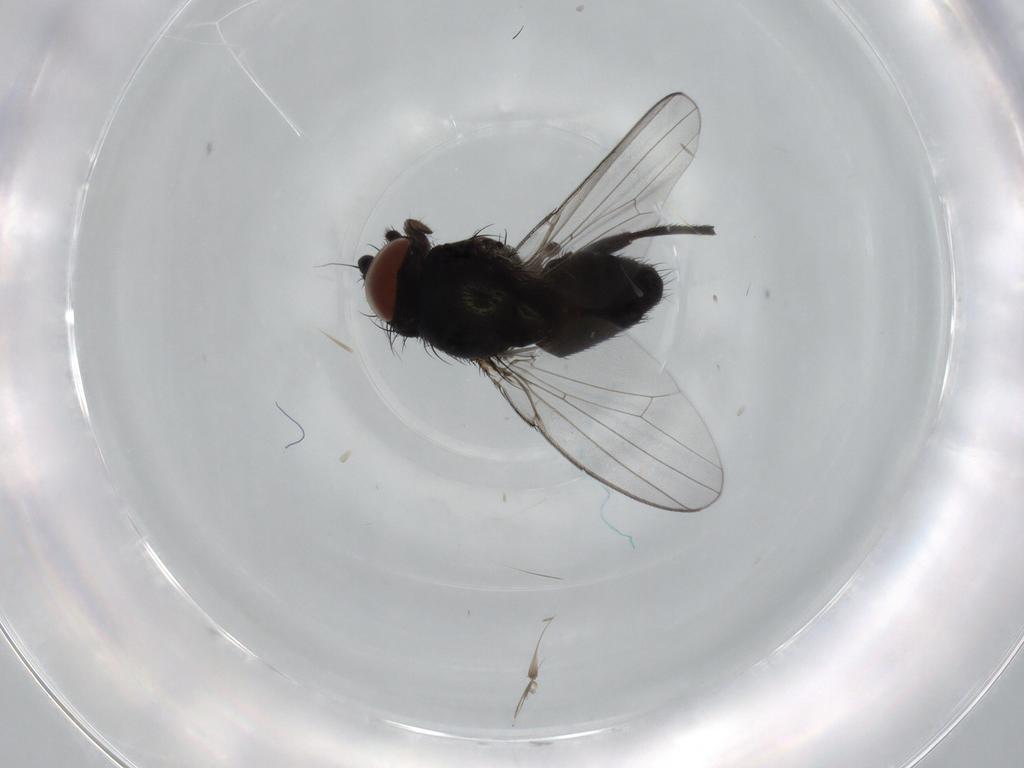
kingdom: Animalia
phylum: Arthropoda
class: Insecta
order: Diptera
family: Milichiidae
